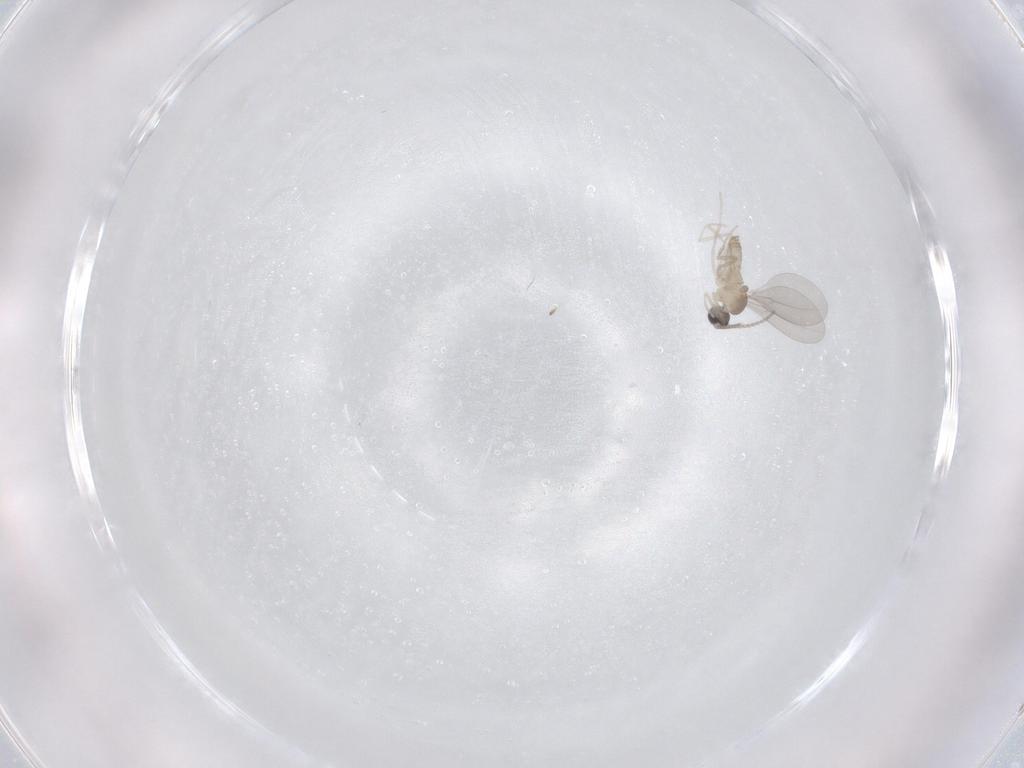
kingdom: Animalia
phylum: Arthropoda
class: Insecta
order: Diptera
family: Cecidomyiidae
